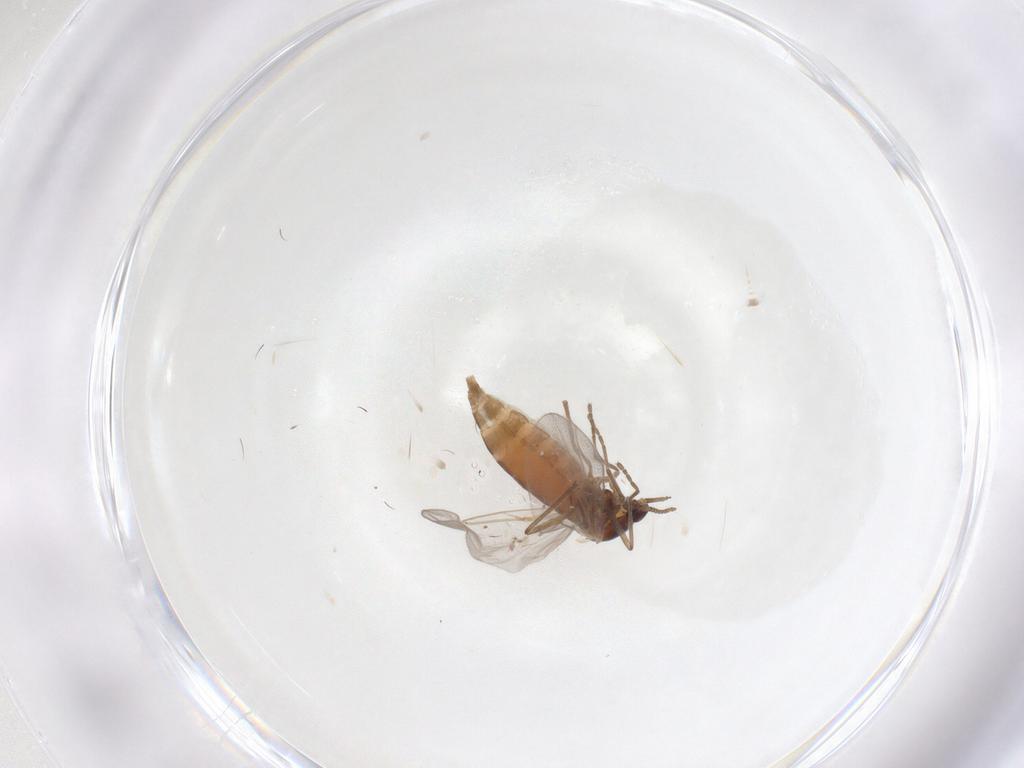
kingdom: Animalia
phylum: Arthropoda
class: Insecta
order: Diptera
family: Cecidomyiidae
